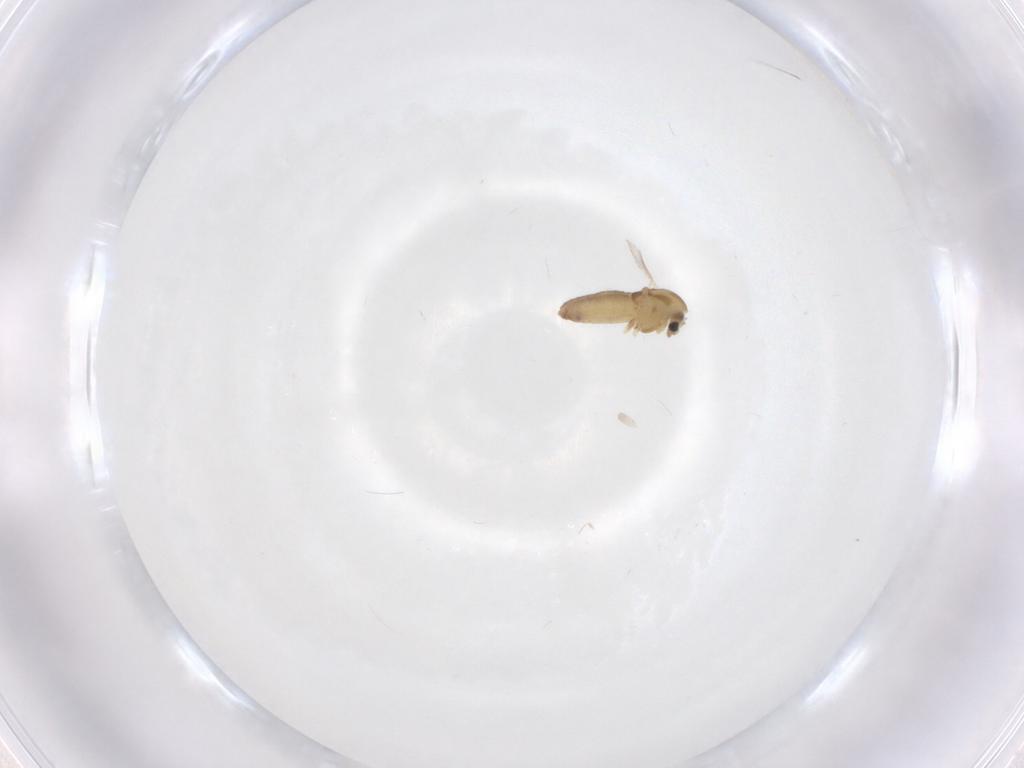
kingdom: Animalia
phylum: Arthropoda
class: Insecta
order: Diptera
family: Chironomidae
